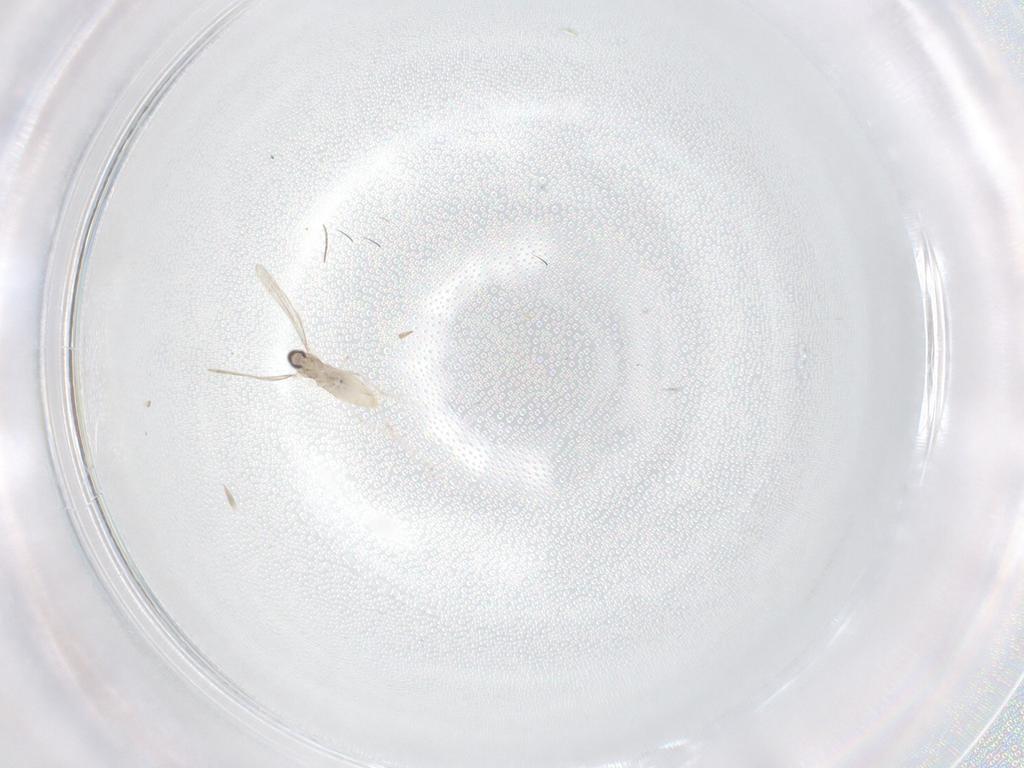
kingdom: Animalia
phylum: Arthropoda
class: Insecta
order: Diptera
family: Cecidomyiidae
